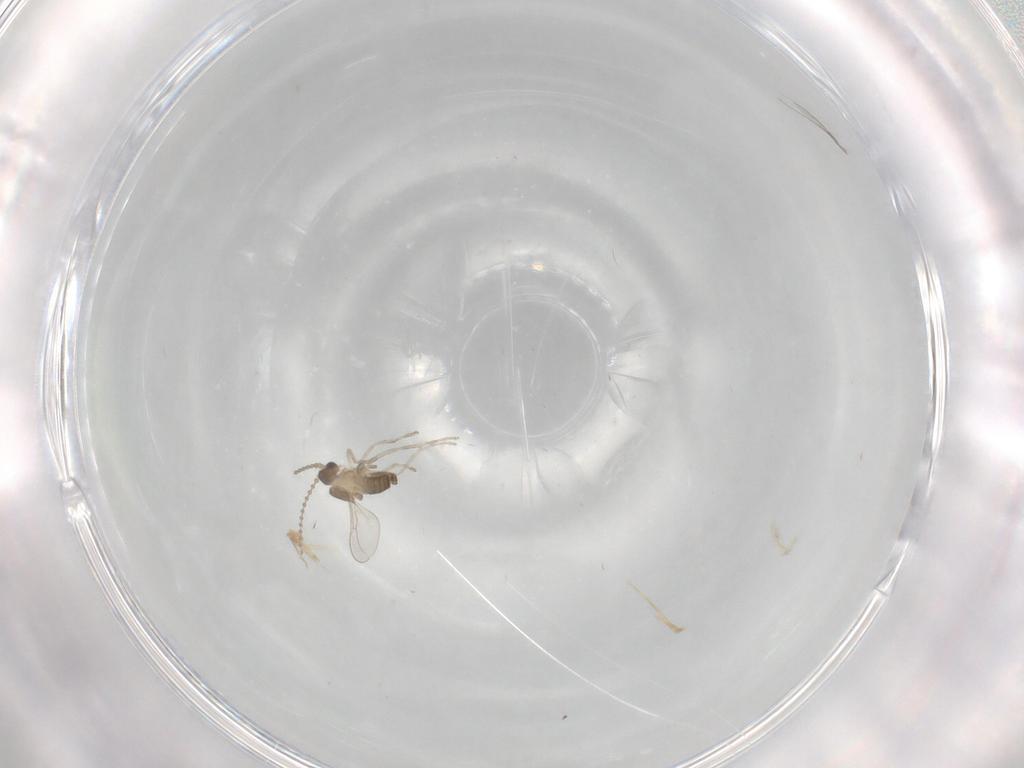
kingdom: Animalia
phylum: Arthropoda
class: Insecta
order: Diptera
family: Cecidomyiidae
